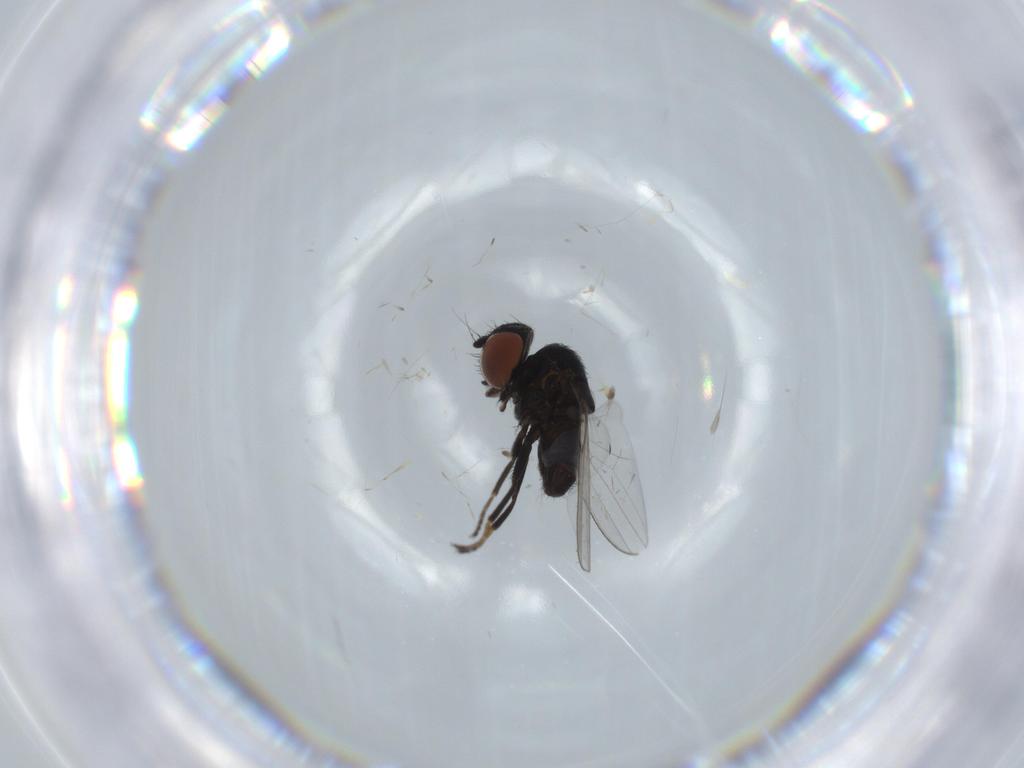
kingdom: Animalia
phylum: Arthropoda
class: Insecta
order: Diptera
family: Milichiidae
